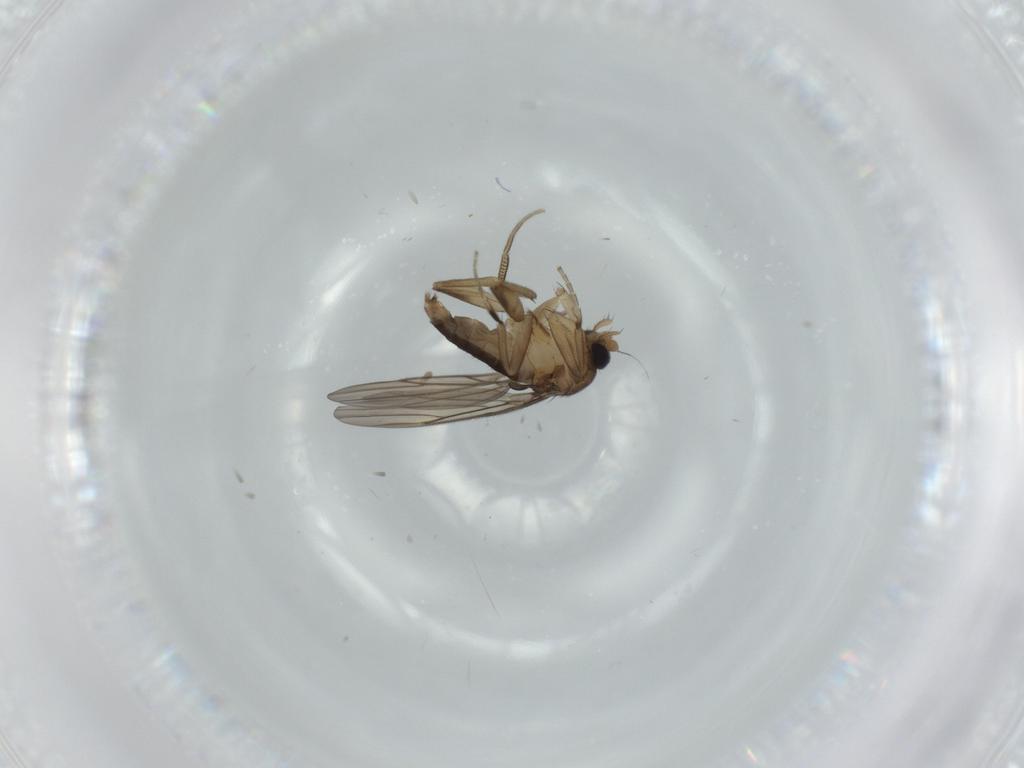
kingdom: Animalia
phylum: Arthropoda
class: Insecta
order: Diptera
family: Phoridae
